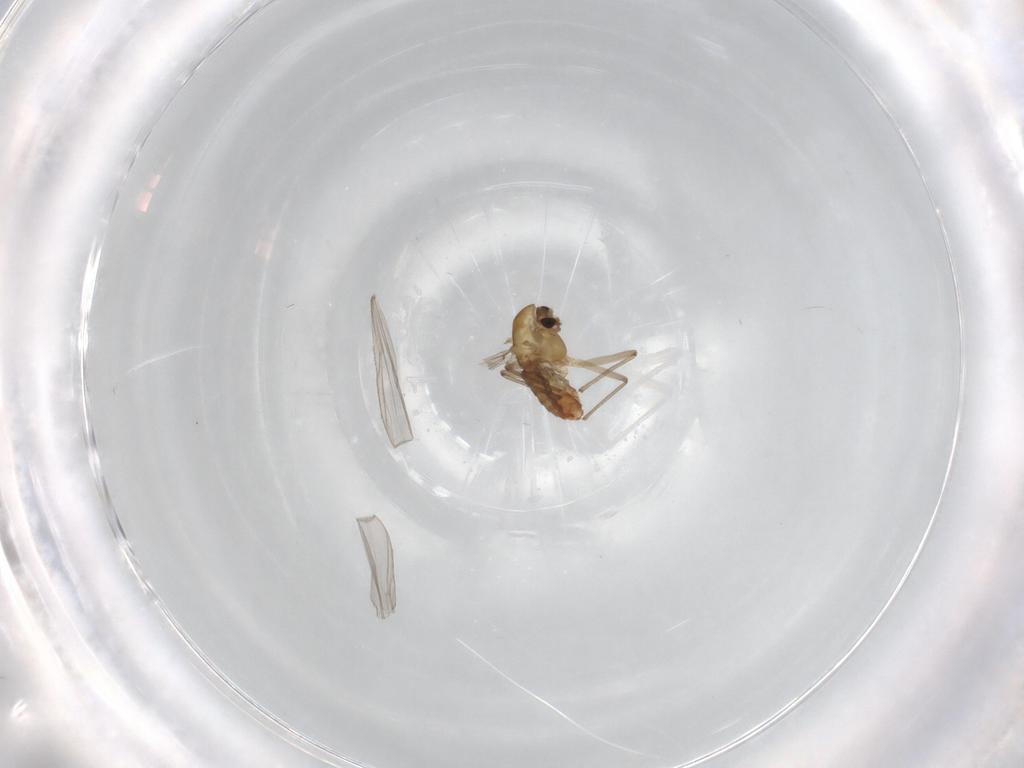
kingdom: Animalia
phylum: Arthropoda
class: Insecta
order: Diptera
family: Chironomidae
